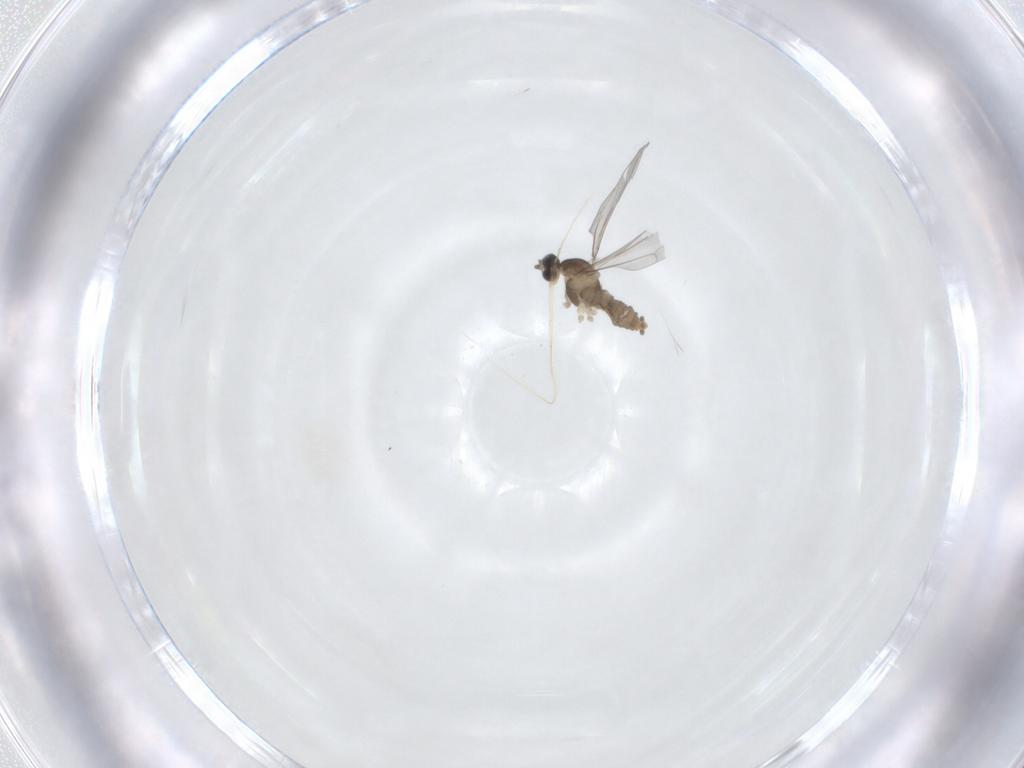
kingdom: Animalia
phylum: Arthropoda
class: Insecta
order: Diptera
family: Cecidomyiidae
